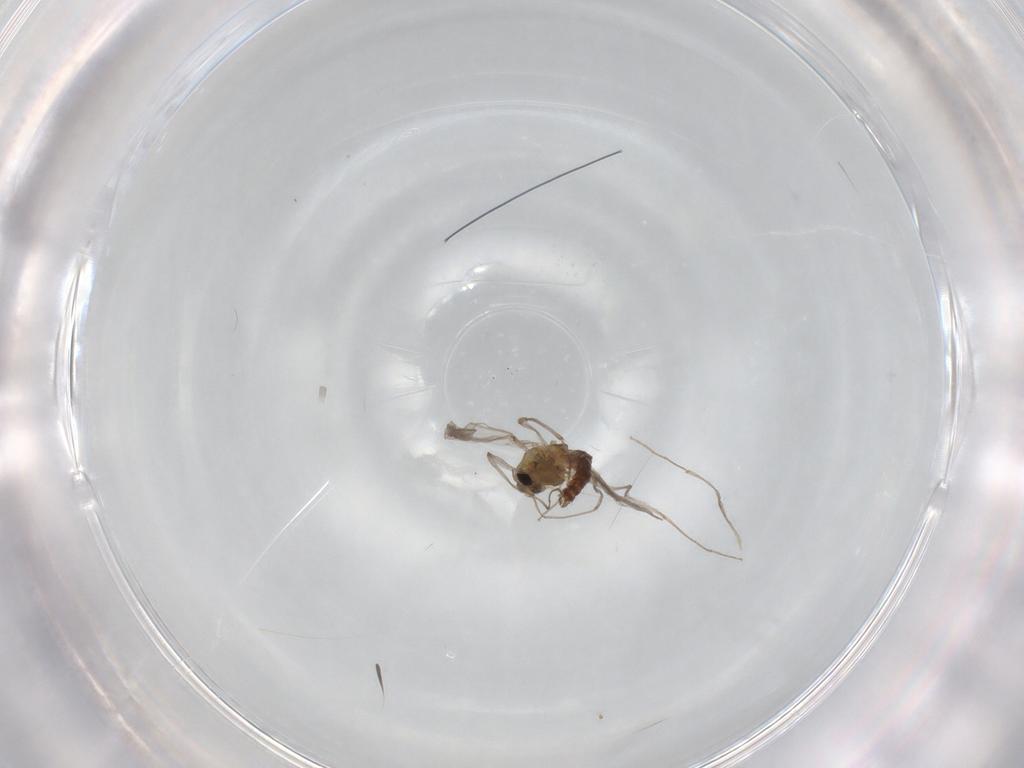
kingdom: Animalia
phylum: Arthropoda
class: Insecta
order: Diptera
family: Chironomidae
